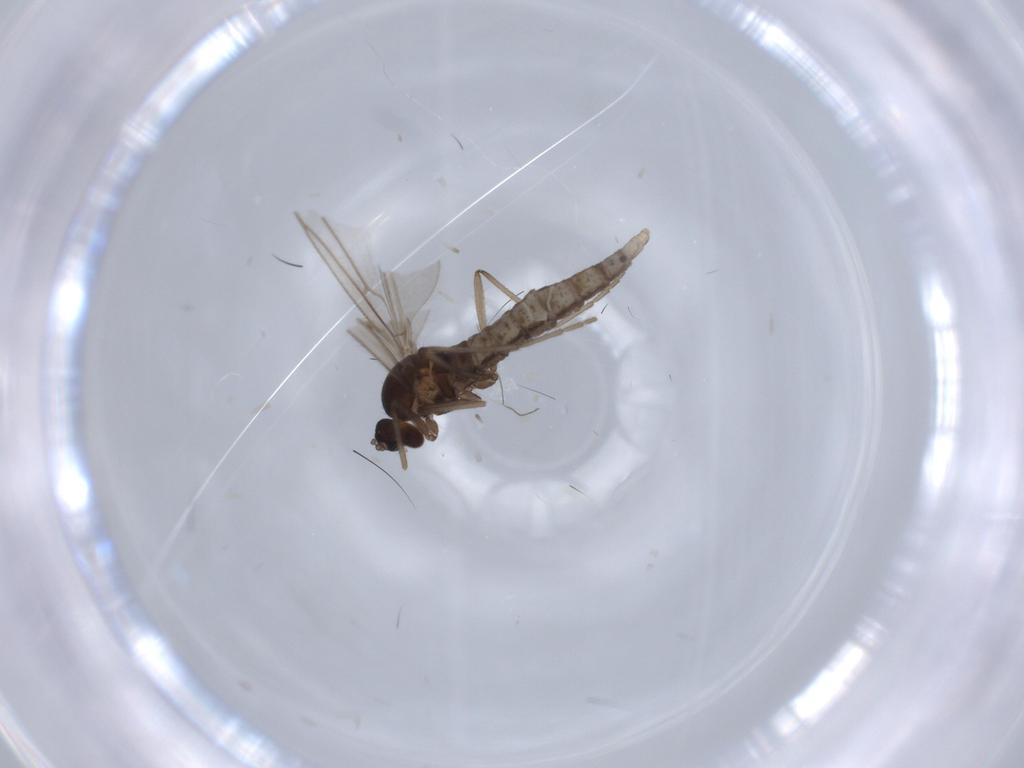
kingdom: Animalia
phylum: Arthropoda
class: Insecta
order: Diptera
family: Cecidomyiidae
